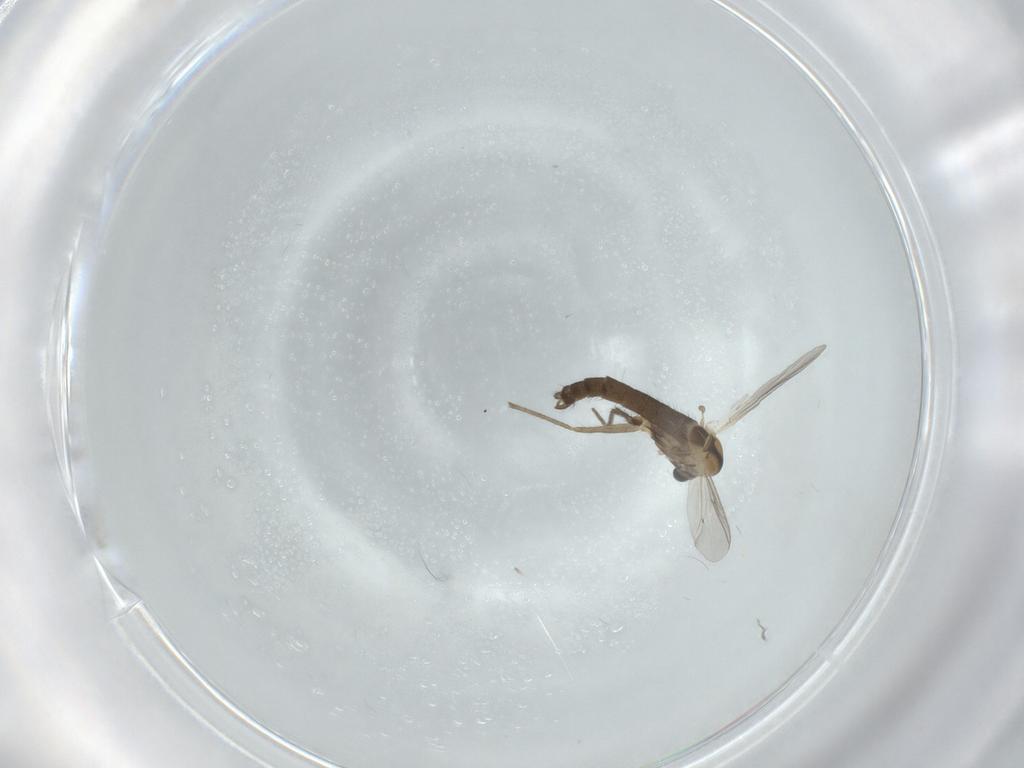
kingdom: Animalia
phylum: Arthropoda
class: Insecta
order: Diptera
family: Chironomidae
